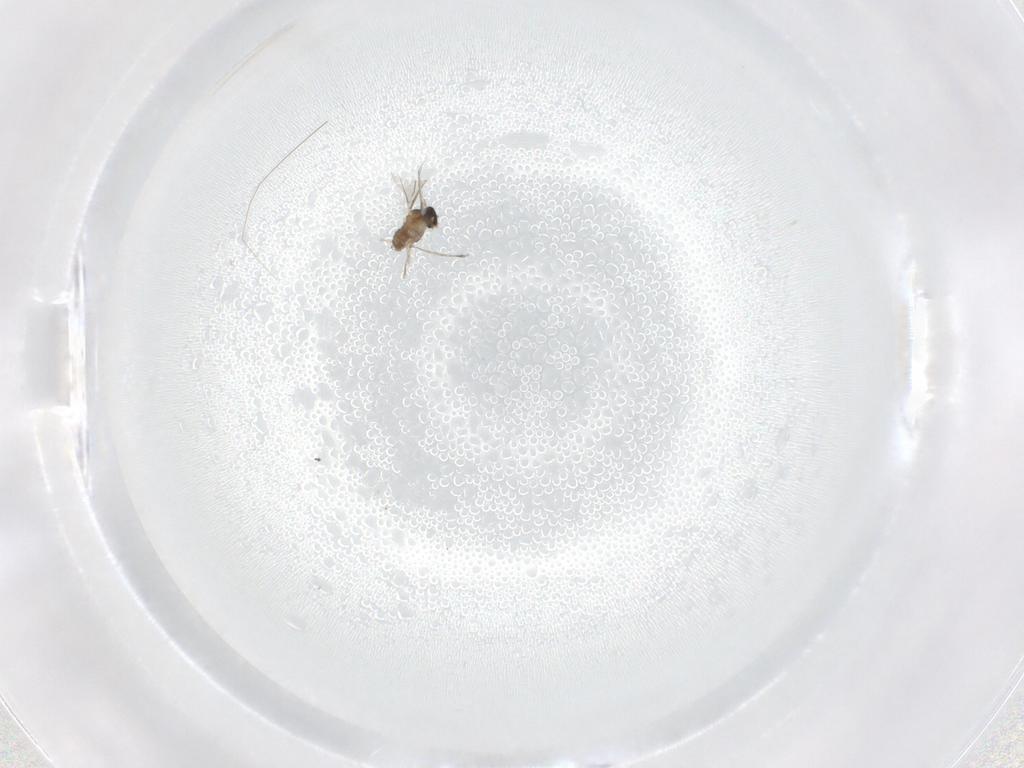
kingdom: Animalia
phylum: Arthropoda
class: Insecta
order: Diptera
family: Cecidomyiidae
